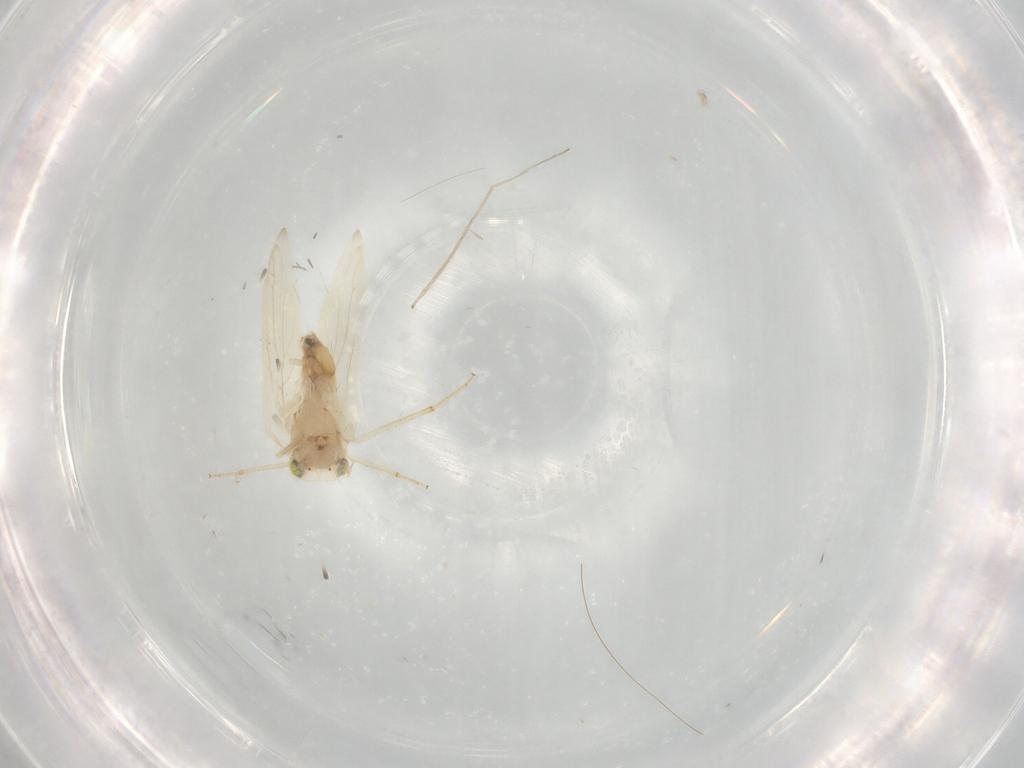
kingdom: Animalia
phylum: Arthropoda
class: Insecta
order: Psocodea
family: Lepidopsocidae
